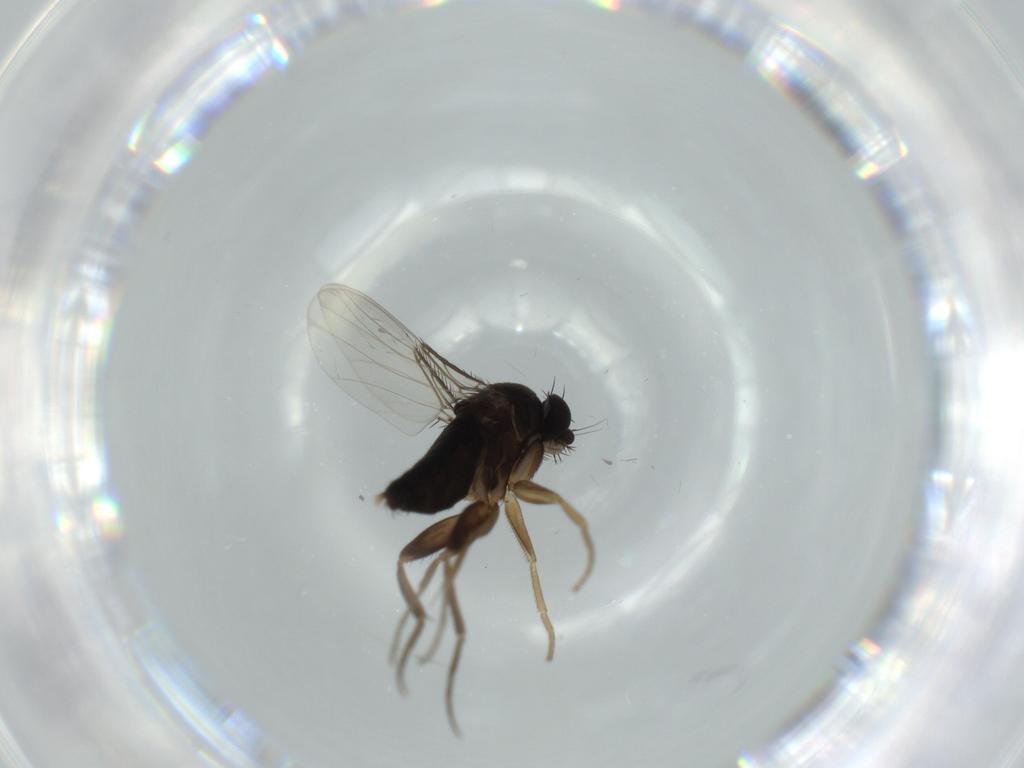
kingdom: Animalia
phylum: Arthropoda
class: Insecta
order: Diptera
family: Phoridae
